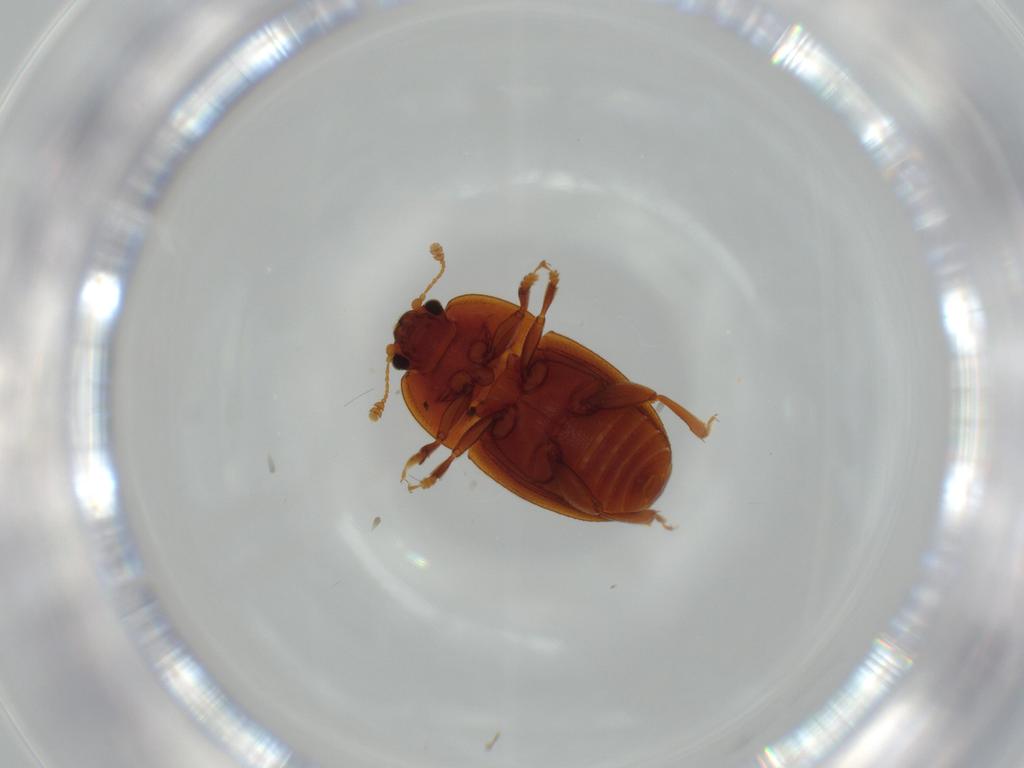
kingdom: Animalia
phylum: Arthropoda
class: Insecta
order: Coleoptera
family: Nitidulidae
